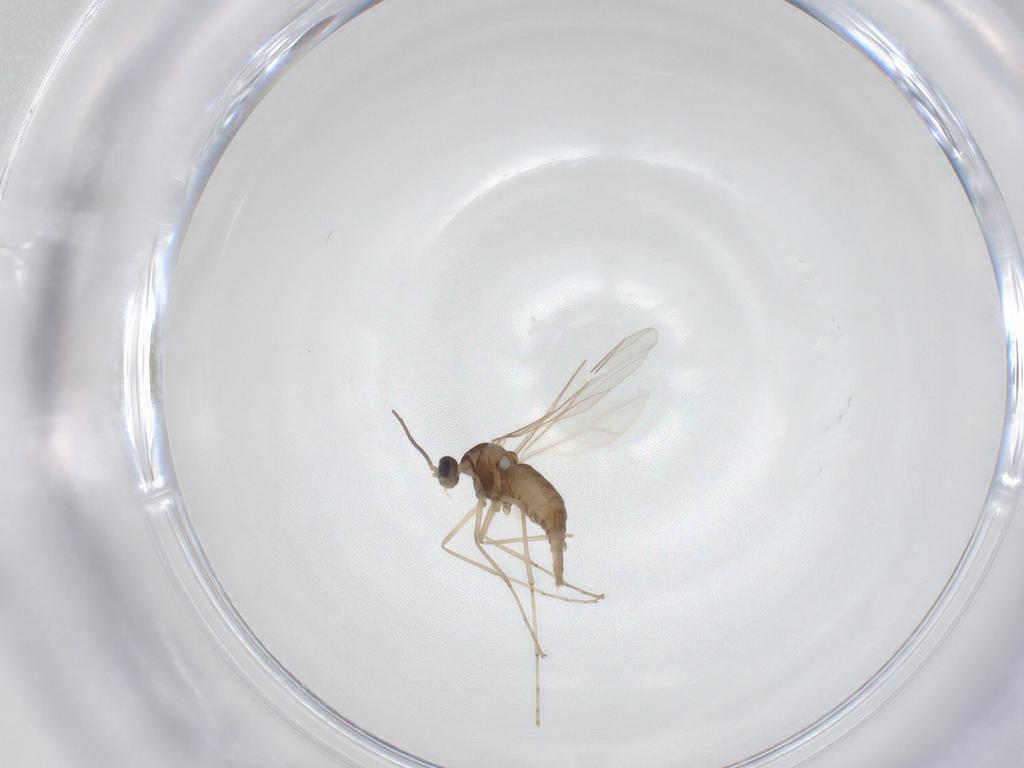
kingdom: Animalia
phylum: Arthropoda
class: Insecta
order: Diptera
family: Cecidomyiidae
